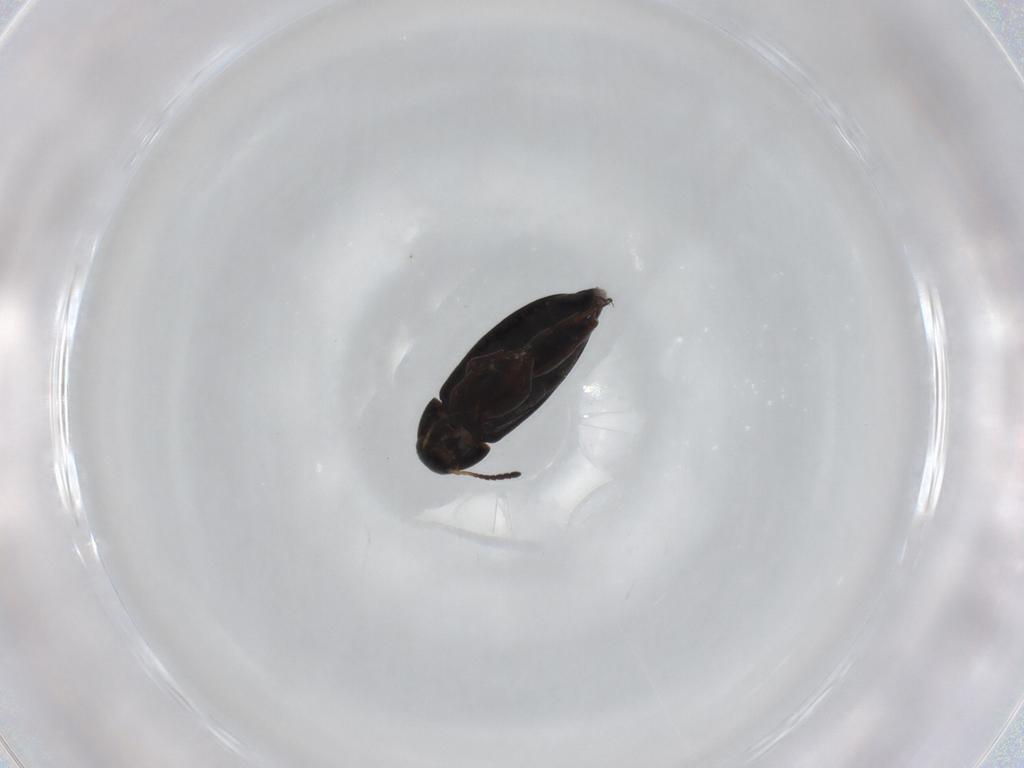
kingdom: Animalia
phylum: Arthropoda
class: Insecta
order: Coleoptera
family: Scraptiidae
